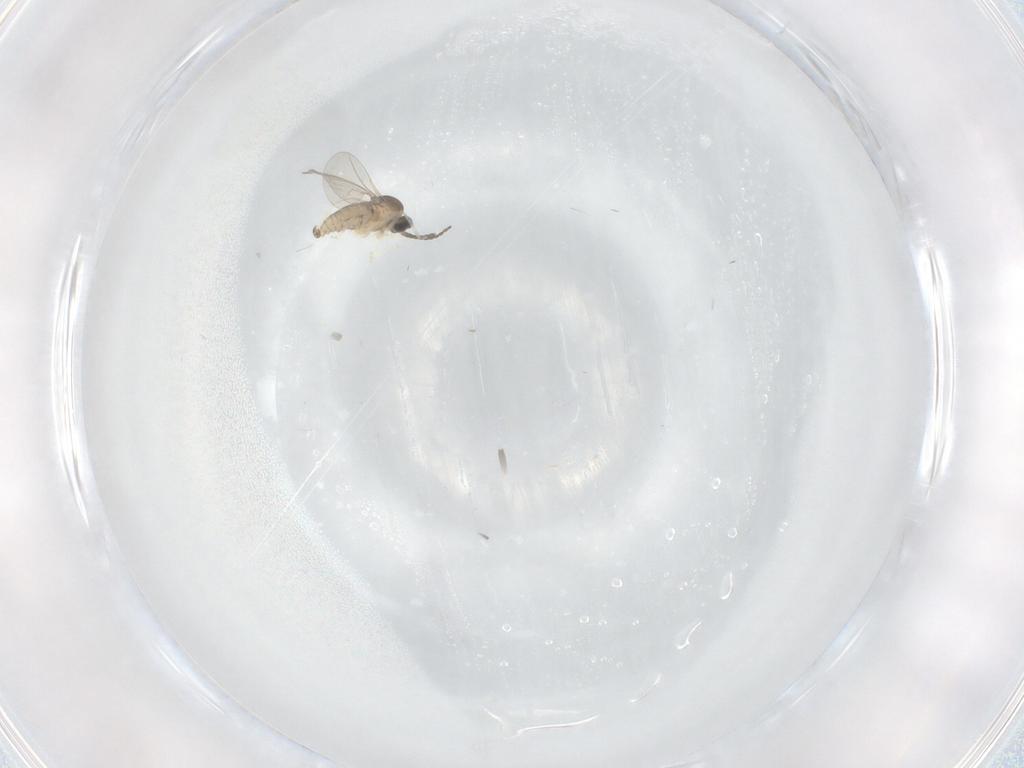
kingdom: Animalia
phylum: Arthropoda
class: Insecta
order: Diptera
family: Cecidomyiidae
